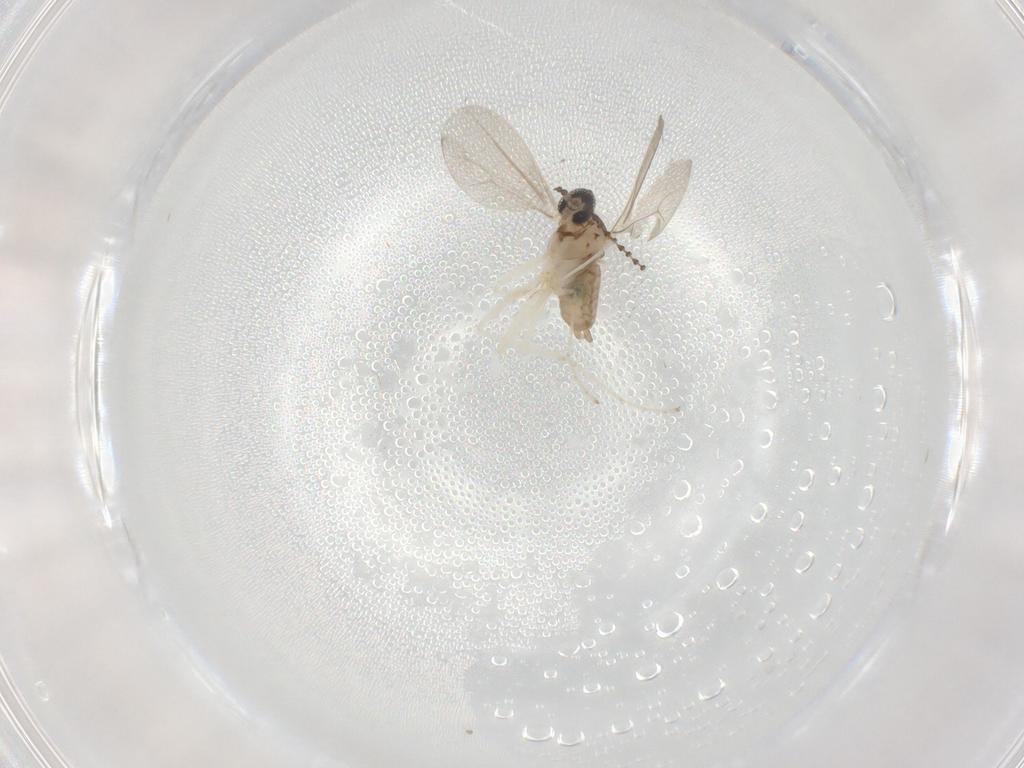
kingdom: Animalia
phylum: Arthropoda
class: Insecta
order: Diptera
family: Cecidomyiidae
